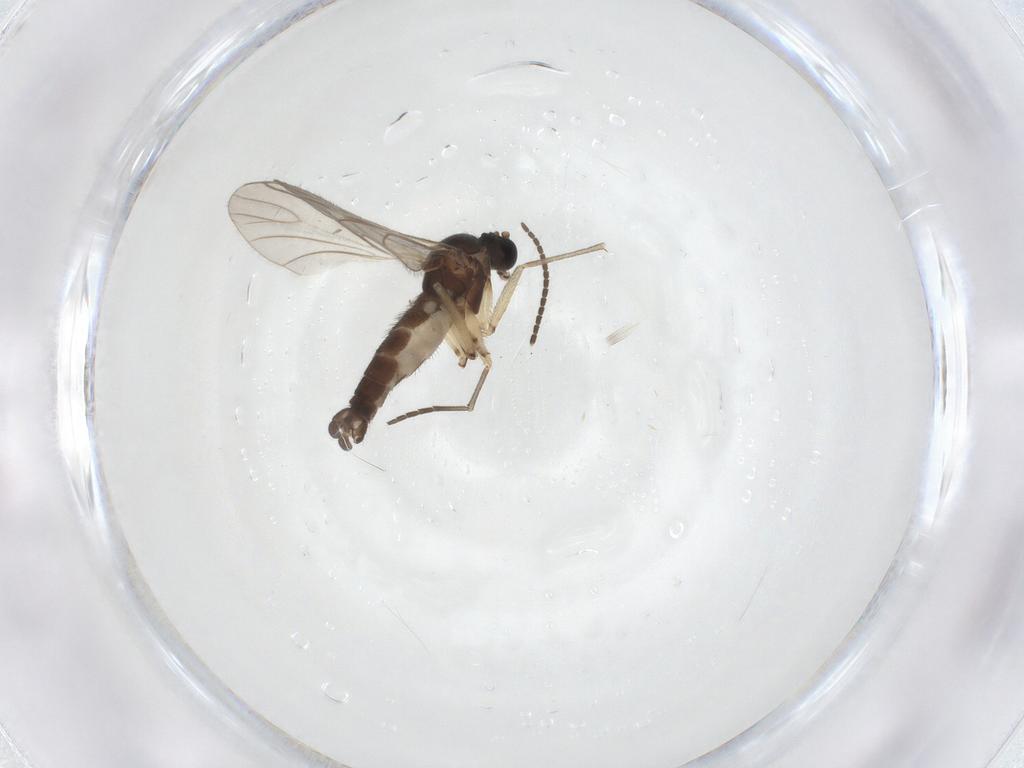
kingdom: Animalia
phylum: Arthropoda
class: Insecta
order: Diptera
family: Sciaridae
